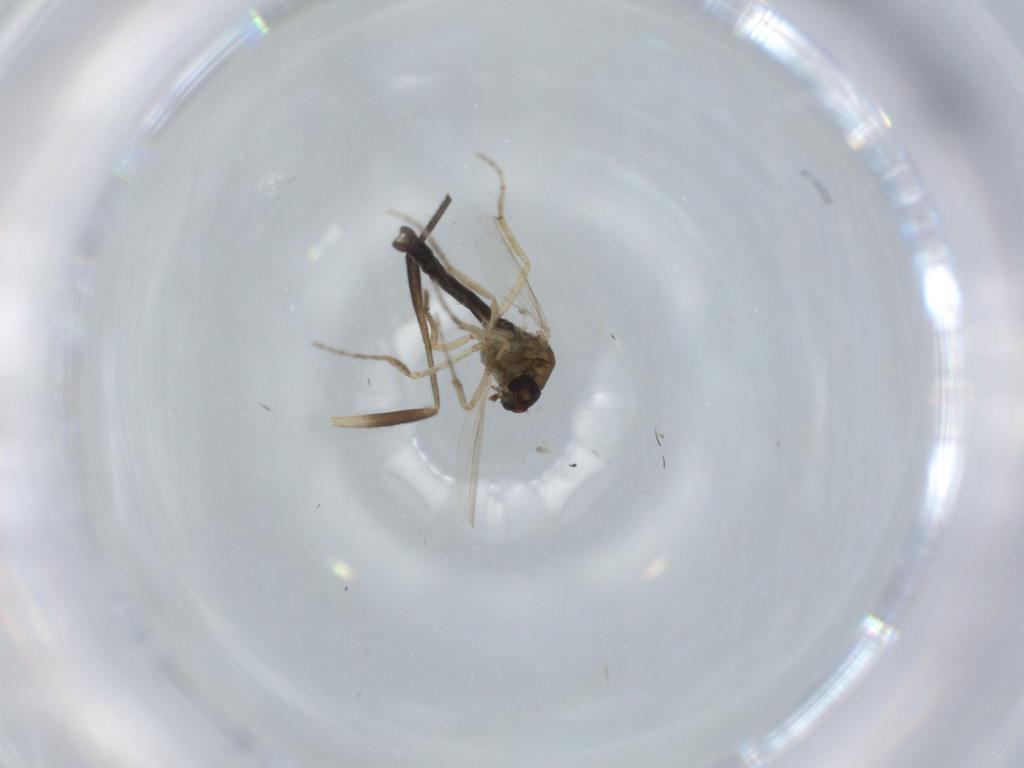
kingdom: Animalia
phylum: Arthropoda
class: Insecta
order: Diptera
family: Ceratopogonidae
